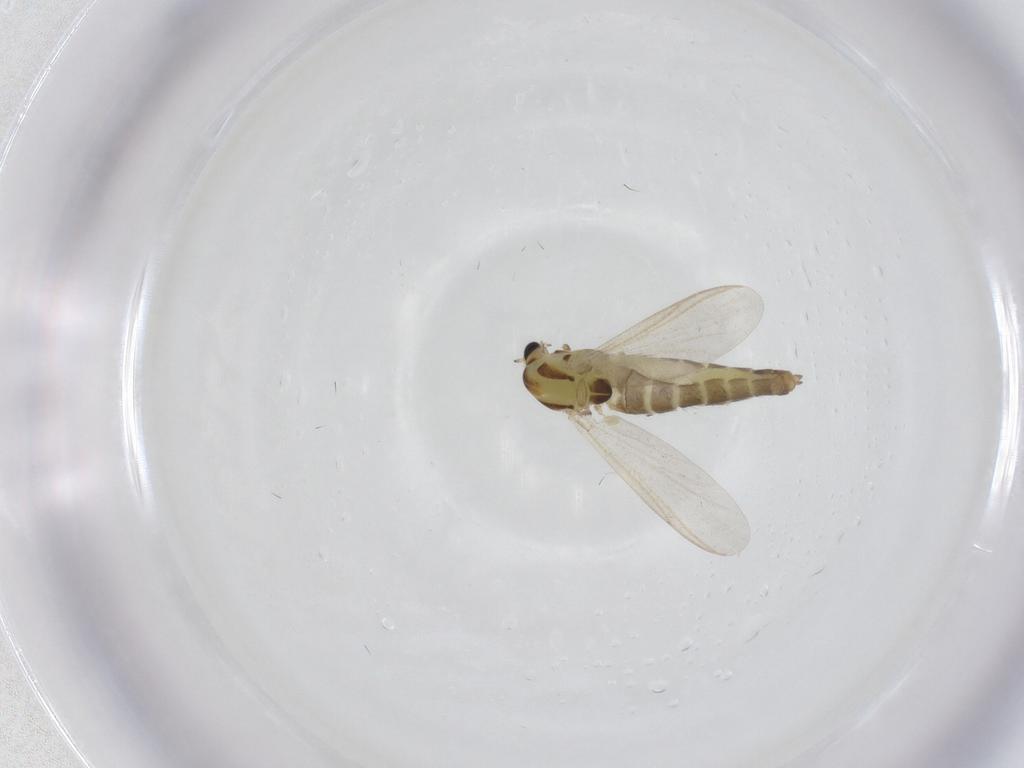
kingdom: Animalia
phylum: Arthropoda
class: Insecta
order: Diptera
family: Chironomidae
